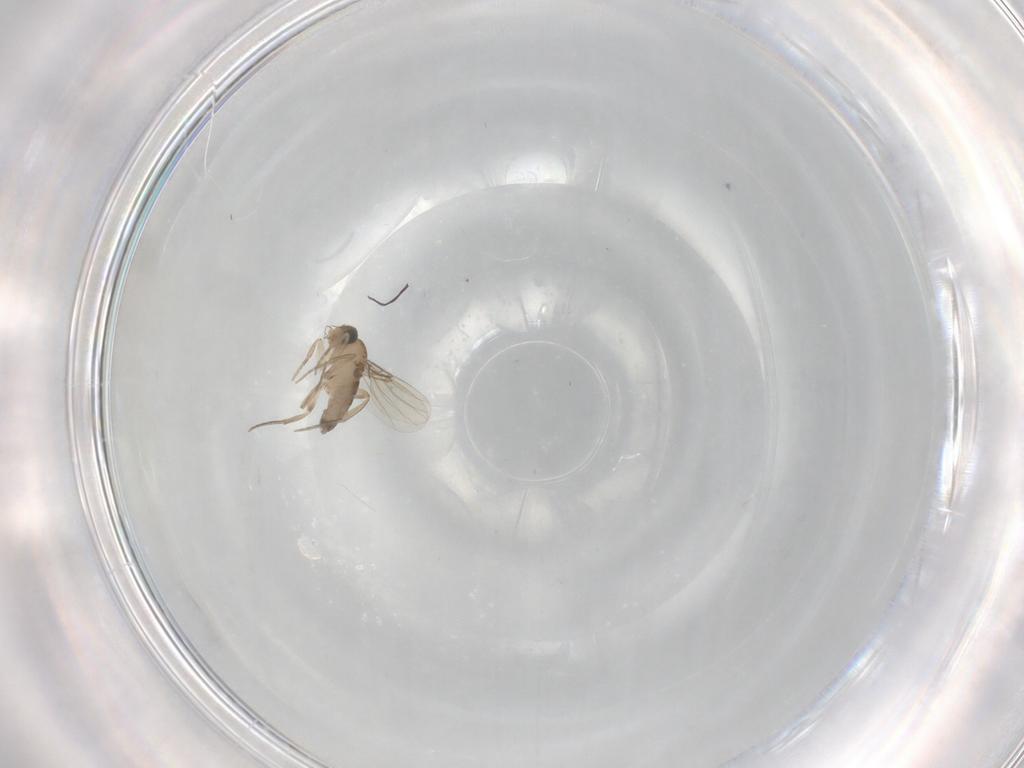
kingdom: Animalia
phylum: Arthropoda
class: Insecta
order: Diptera
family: Phoridae
